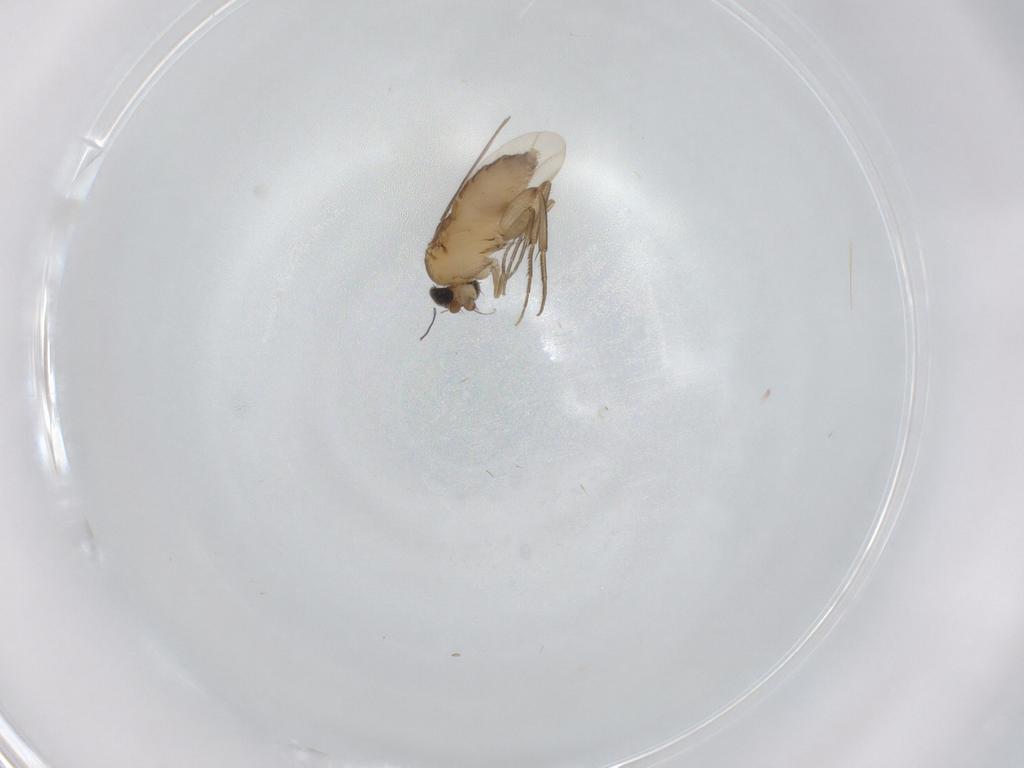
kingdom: Animalia
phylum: Arthropoda
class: Insecta
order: Diptera
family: Phoridae
